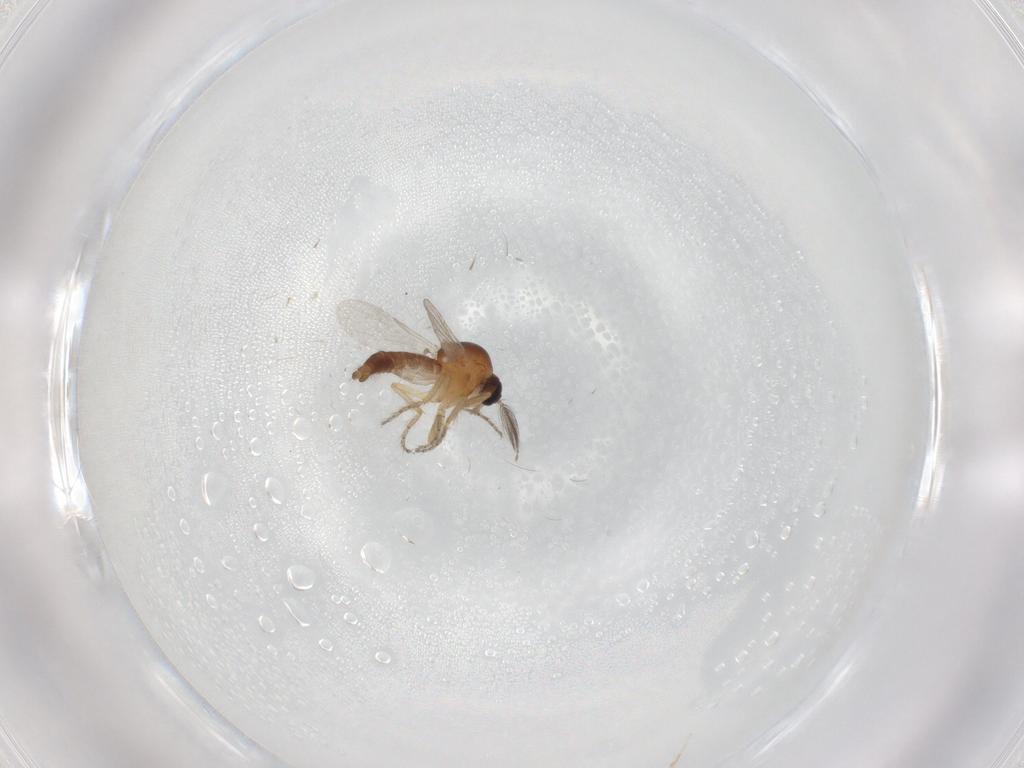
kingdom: Animalia
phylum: Arthropoda
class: Insecta
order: Diptera
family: Ceratopogonidae
